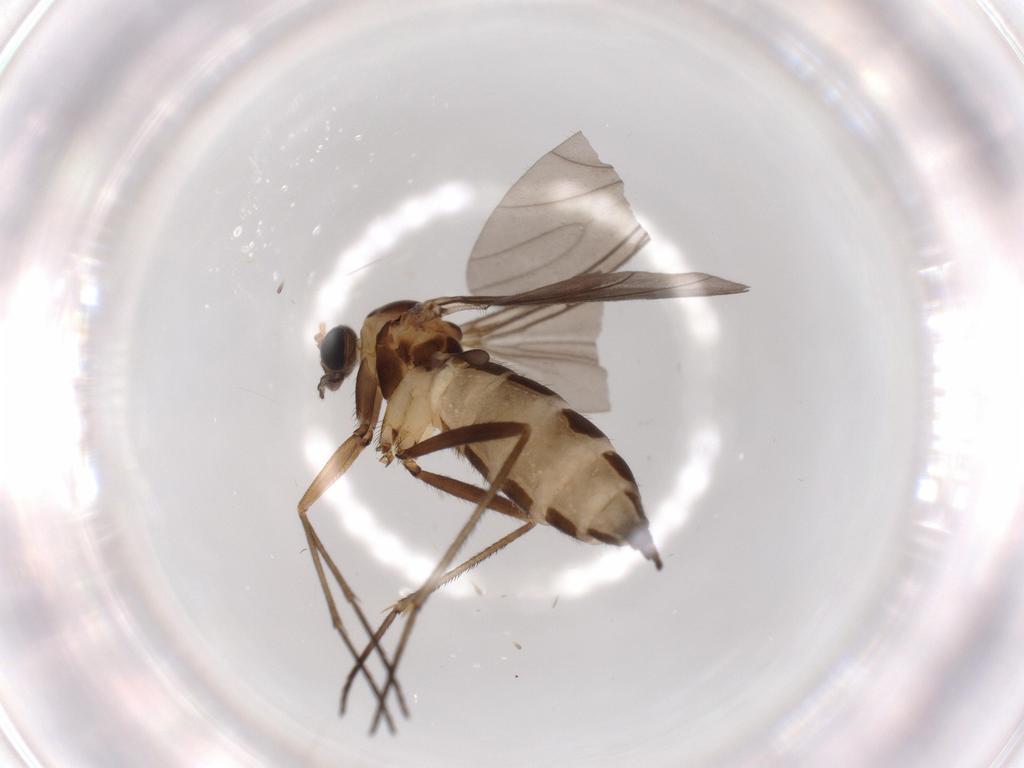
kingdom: Animalia
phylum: Arthropoda
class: Insecta
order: Diptera
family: Sciaridae
